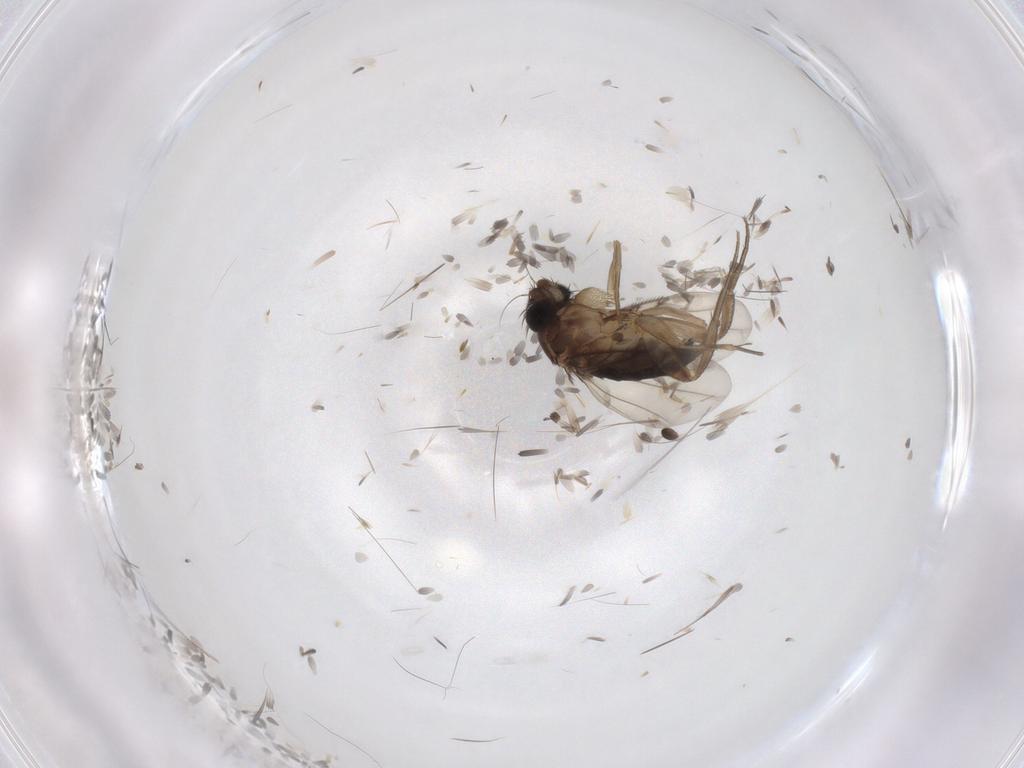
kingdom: Animalia
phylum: Arthropoda
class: Insecta
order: Diptera
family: Phoridae
